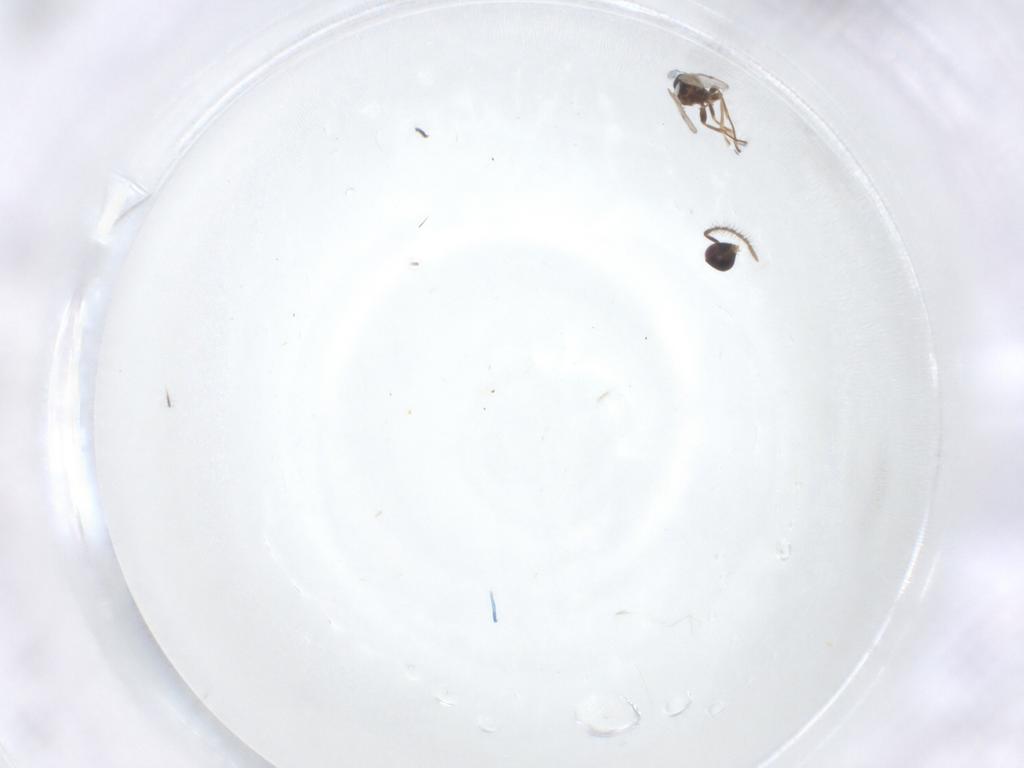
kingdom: Animalia
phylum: Arthropoda
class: Insecta
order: Hymenoptera
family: Encyrtidae
